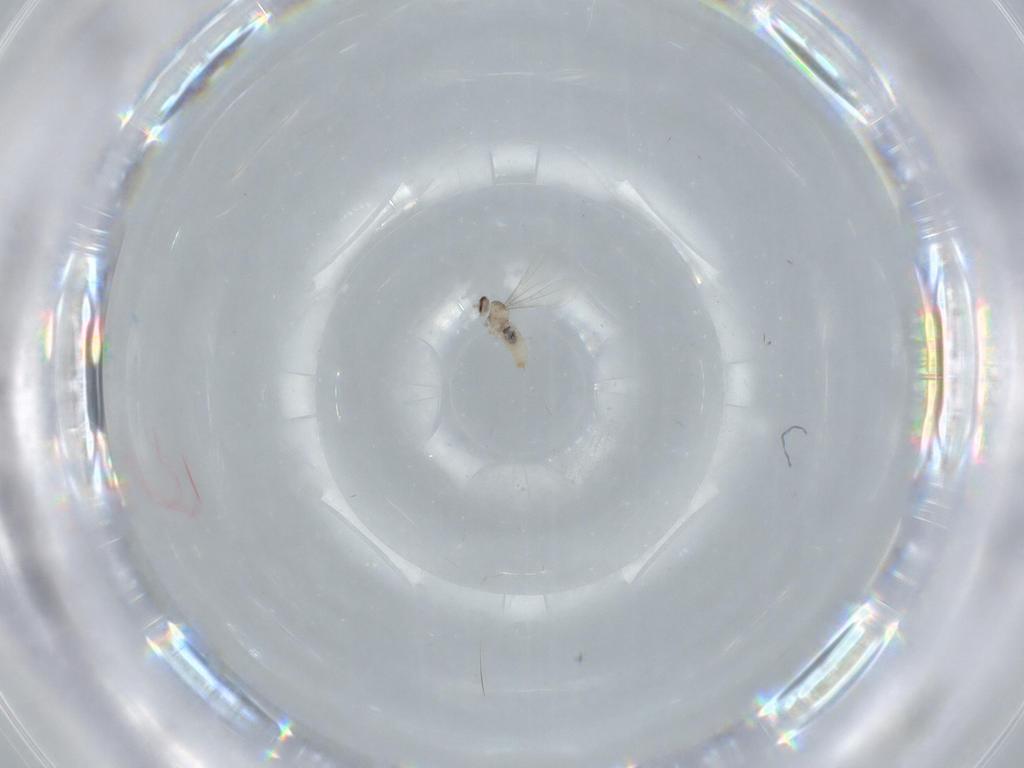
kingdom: Animalia
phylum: Arthropoda
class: Insecta
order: Diptera
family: Cecidomyiidae
